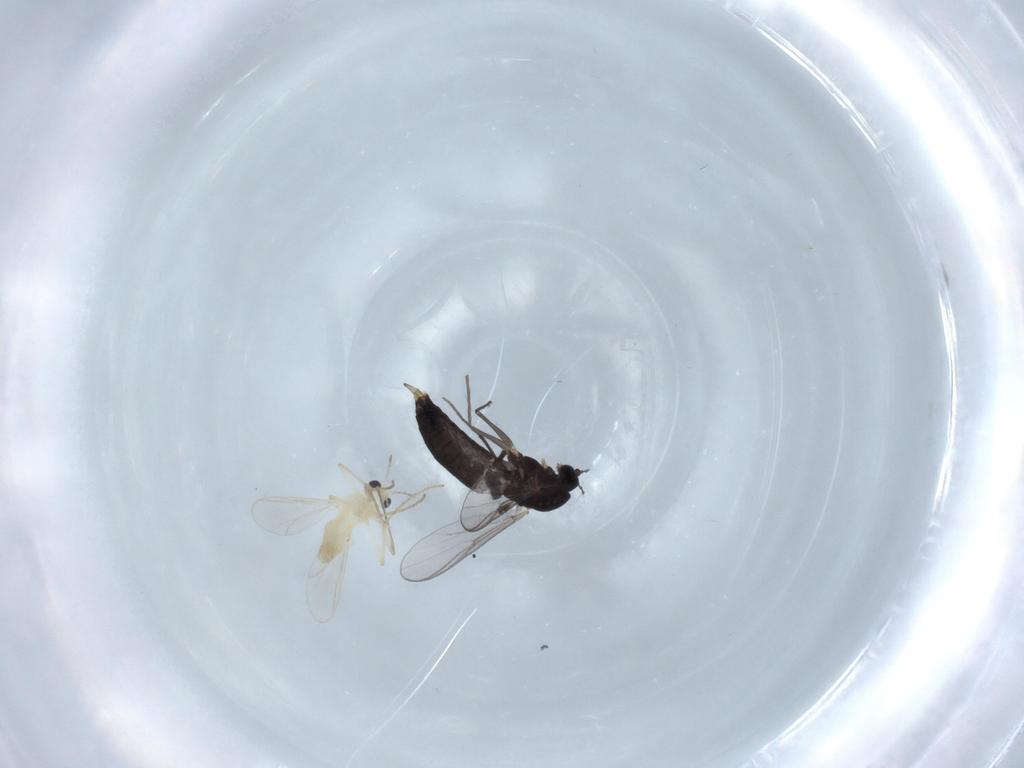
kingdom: Animalia
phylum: Arthropoda
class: Insecta
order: Diptera
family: Chironomidae
